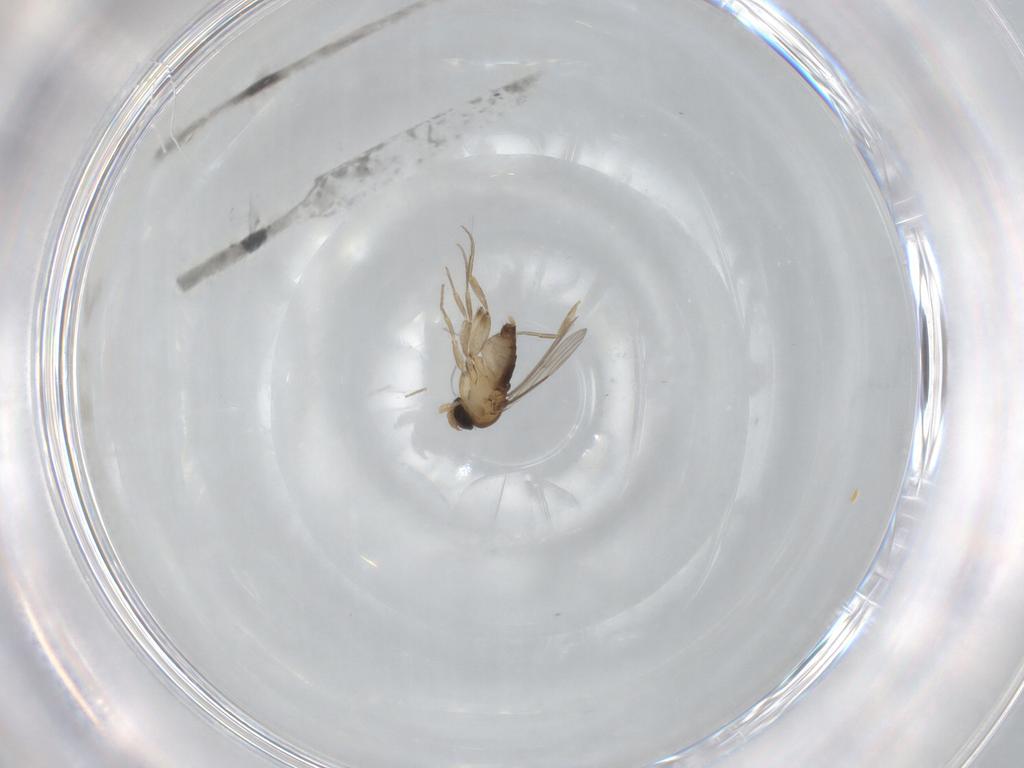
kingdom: Animalia
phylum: Arthropoda
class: Insecta
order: Diptera
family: Phoridae
